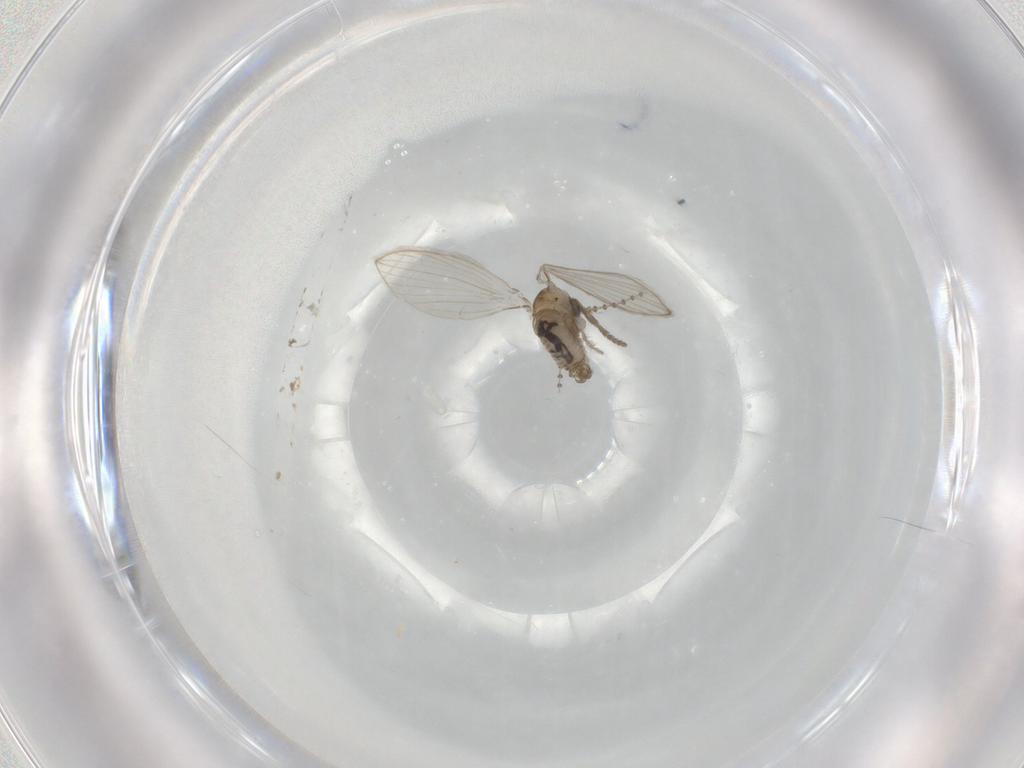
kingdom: Animalia
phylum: Arthropoda
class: Insecta
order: Diptera
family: Psychodidae
